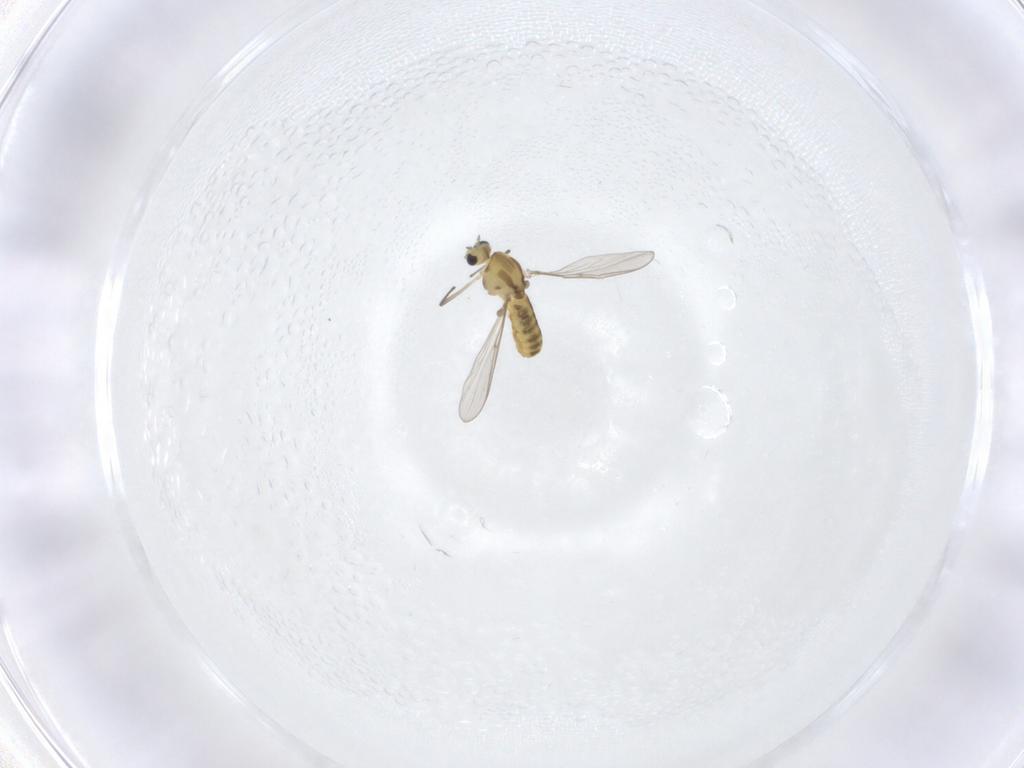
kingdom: Animalia
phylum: Arthropoda
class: Insecta
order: Diptera
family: Chironomidae
